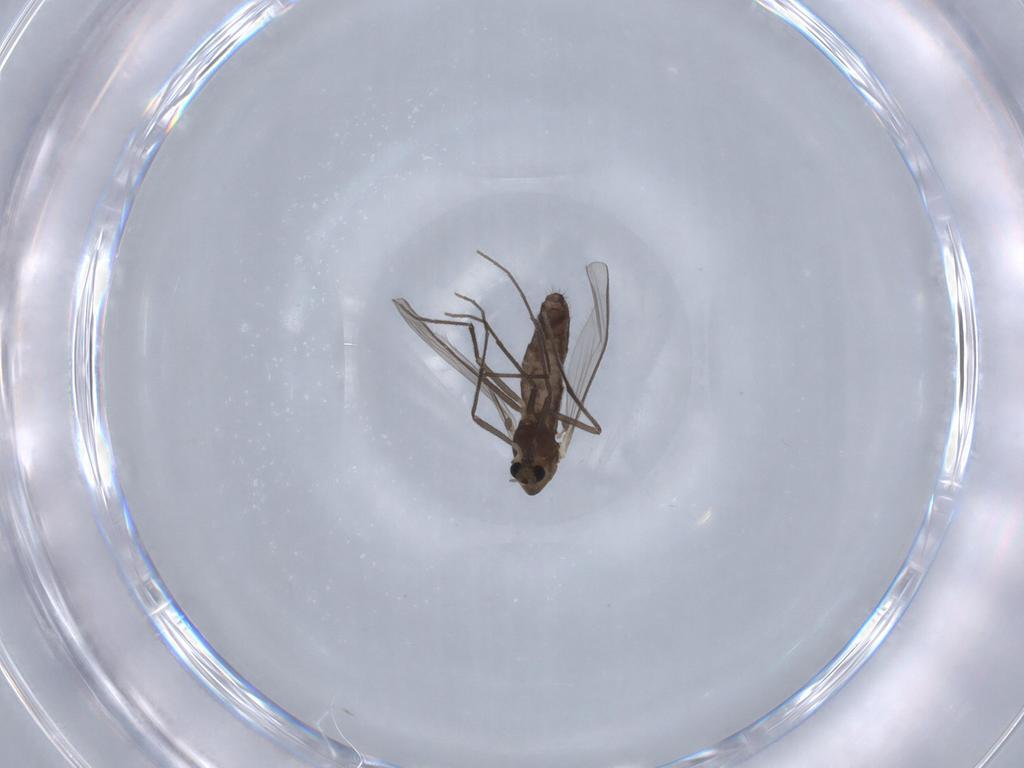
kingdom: Animalia
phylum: Arthropoda
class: Insecta
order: Diptera
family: Chironomidae
